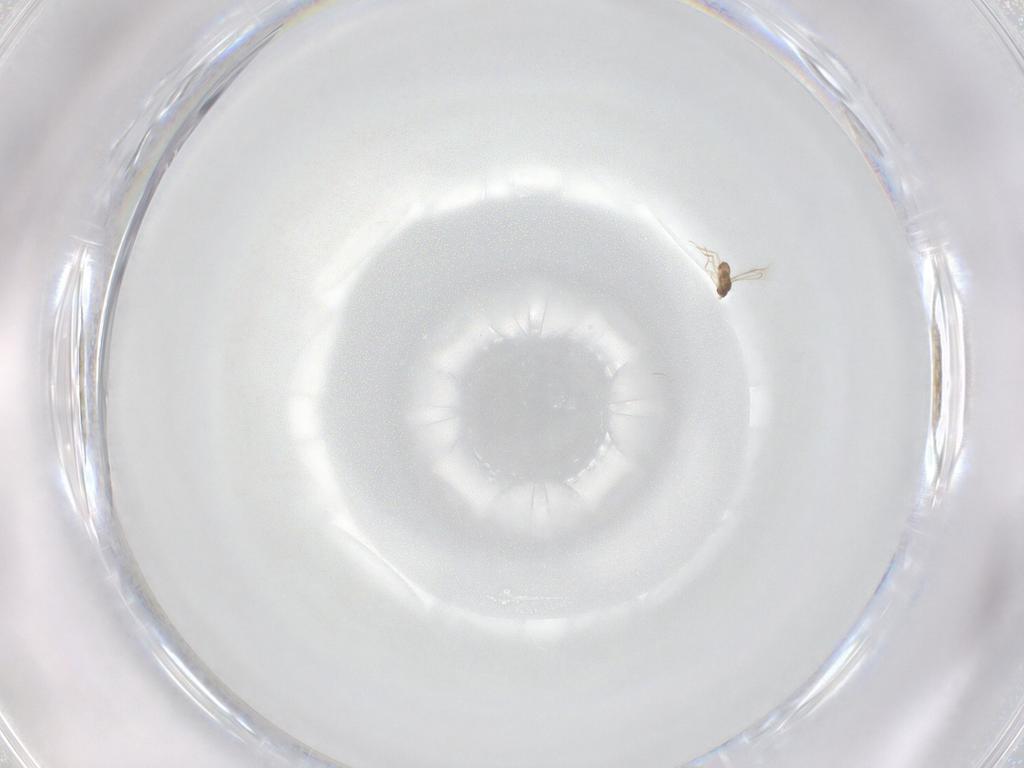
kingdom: Animalia
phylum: Arthropoda
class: Insecta
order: Hymenoptera
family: Mymaridae
